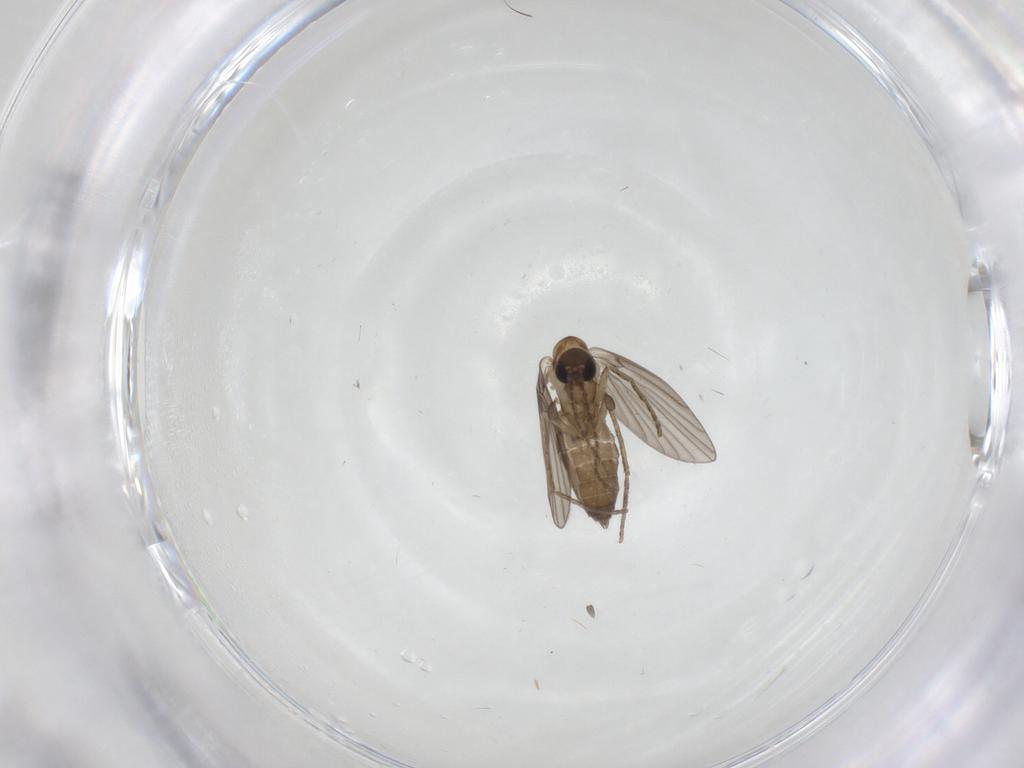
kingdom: Animalia
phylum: Arthropoda
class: Insecta
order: Diptera
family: Cecidomyiidae
